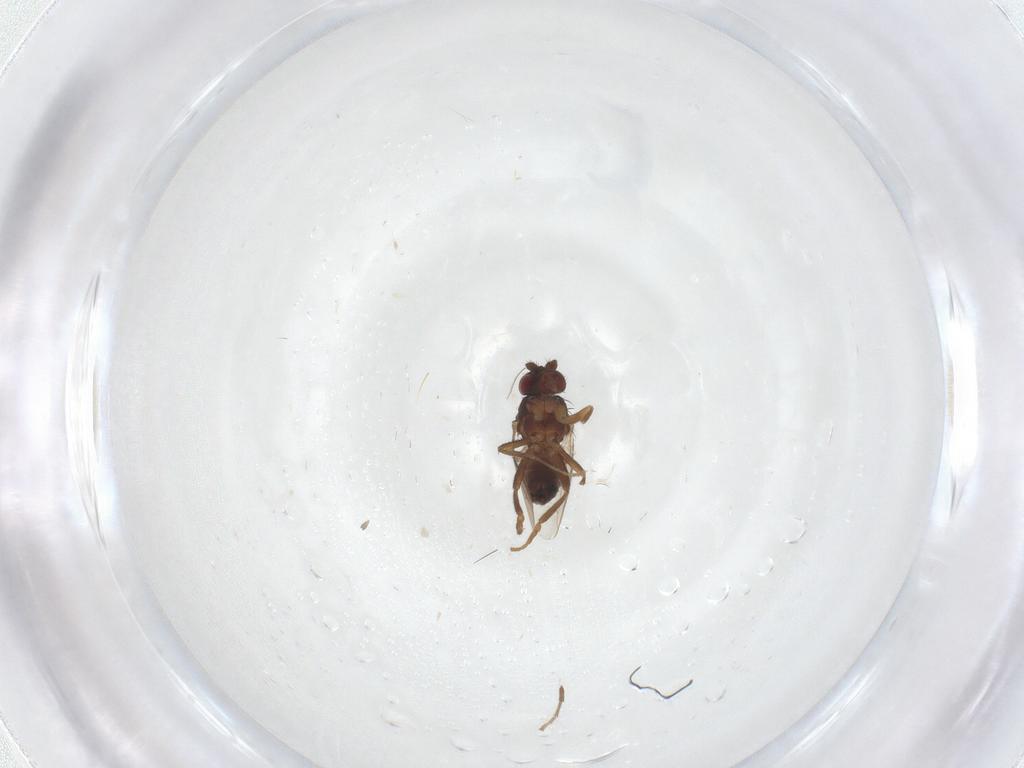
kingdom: Animalia
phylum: Arthropoda
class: Insecta
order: Diptera
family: Sphaeroceridae
